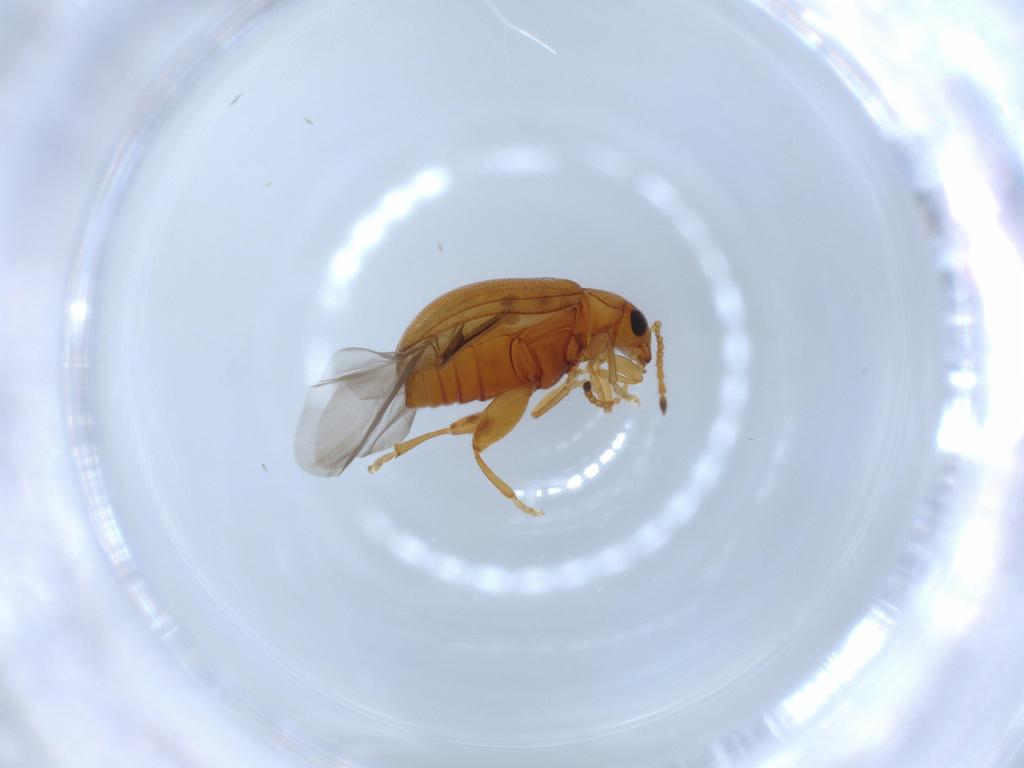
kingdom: Animalia
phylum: Arthropoda
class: Insecta
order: Coleoptera
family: Chrysomelidae
